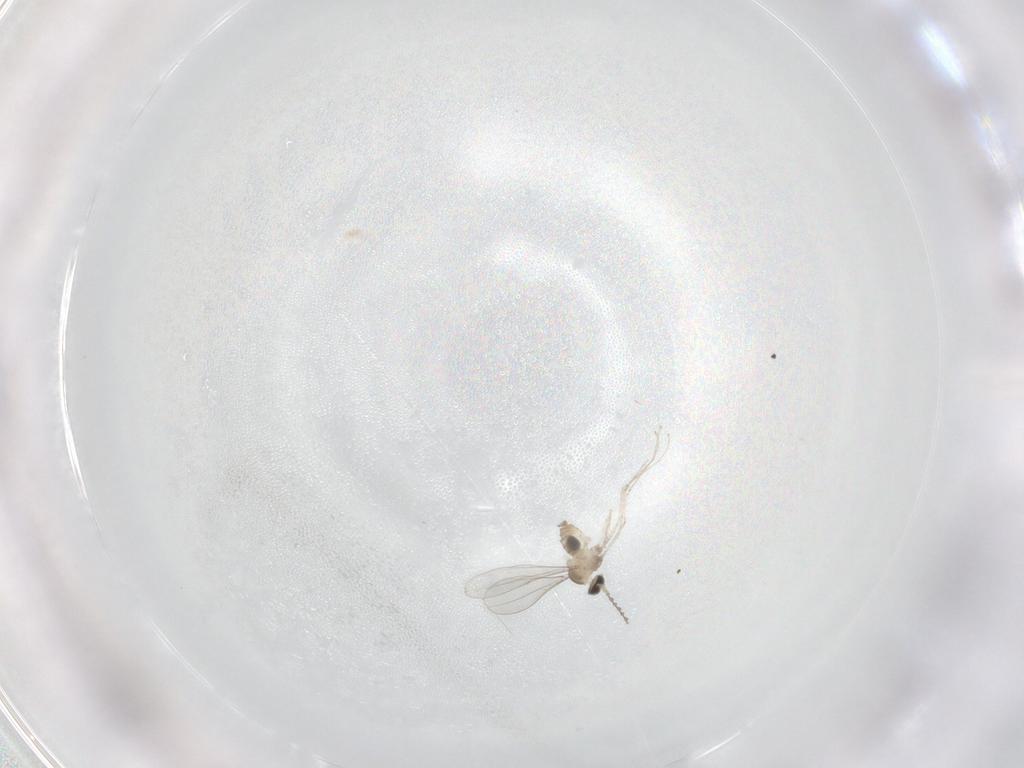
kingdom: Animalia
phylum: Arthropoda
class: Insecta
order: Diptera
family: Cecidomyiidae
